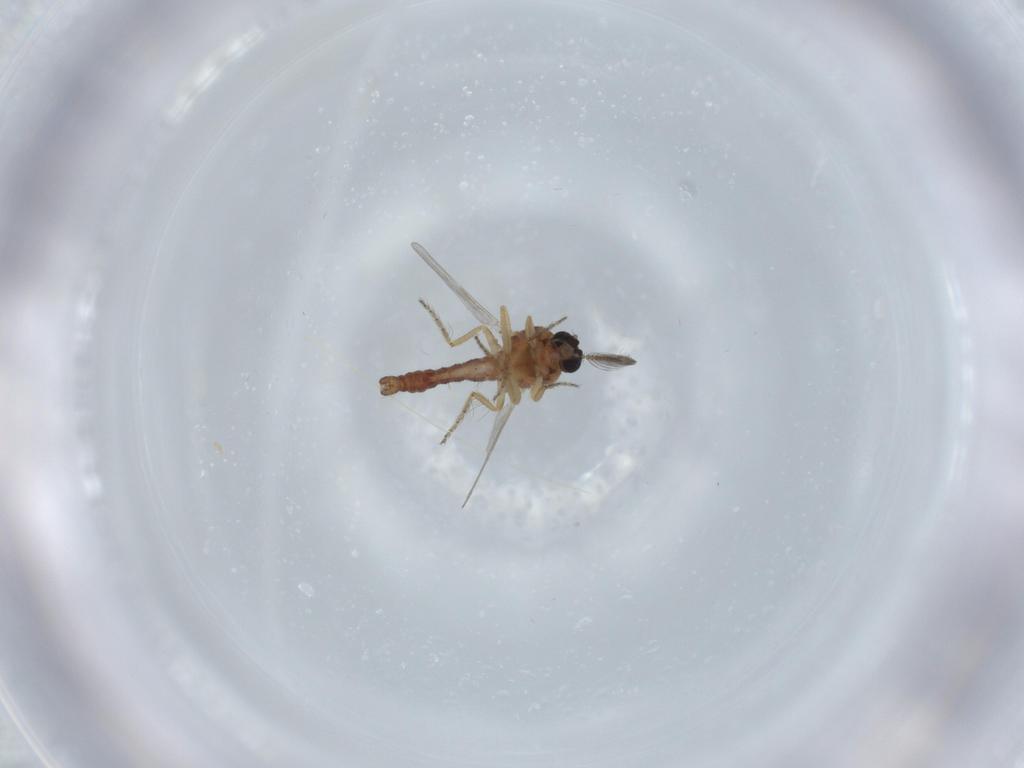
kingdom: Animalia
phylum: Arthropoda
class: Insecta
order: Diptera
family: Ceratopogonidae
